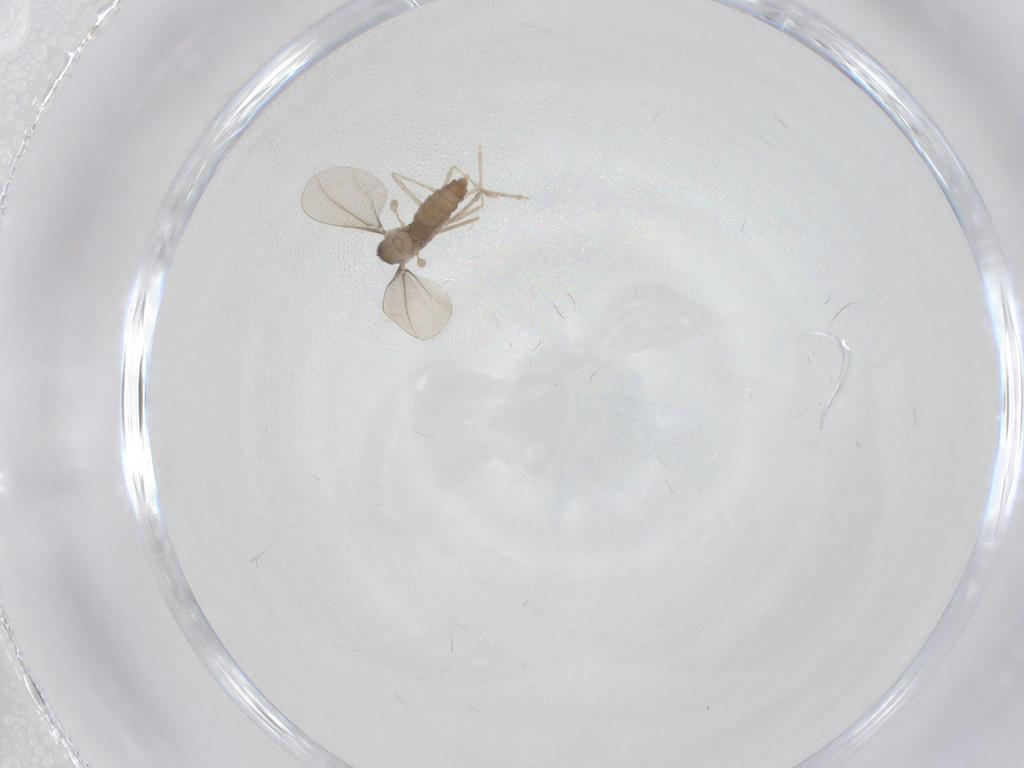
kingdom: Animalia
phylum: Arthropoda
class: Insecta
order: Diptera
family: Cecidomyiidae
